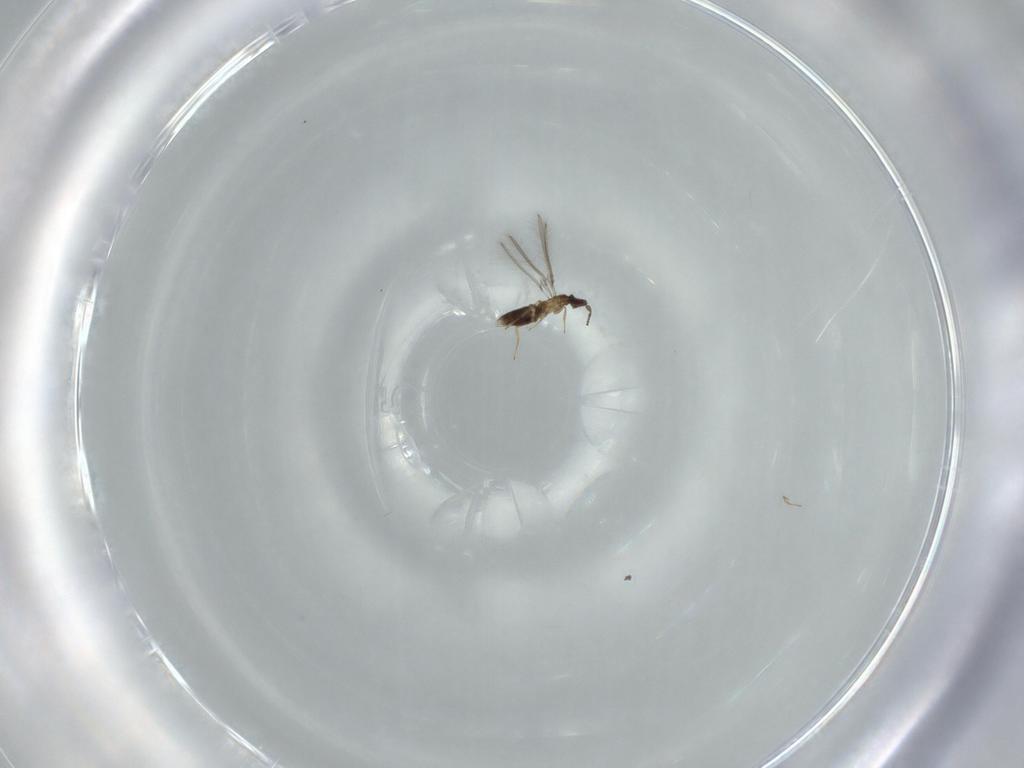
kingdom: Animalia
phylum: Arthropoda
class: Insecta
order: Hymenoptera
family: Mymaridae
